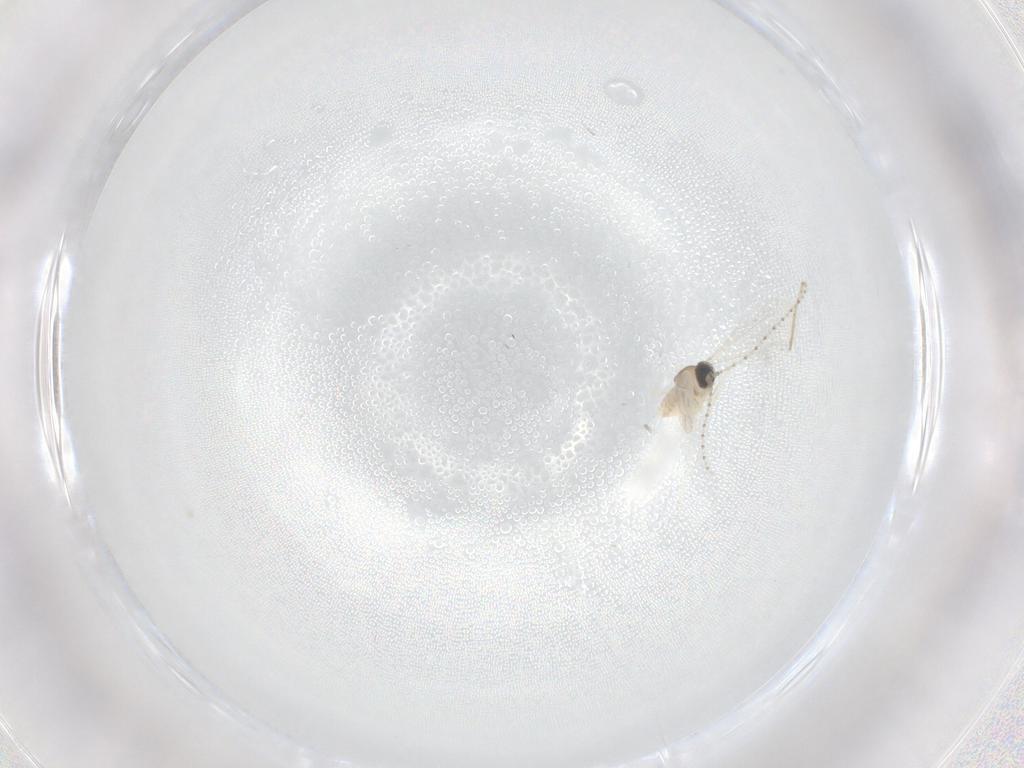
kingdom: Animalia
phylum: Arthropoda
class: Insecta
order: Diptera
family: Cecidomyiidae
